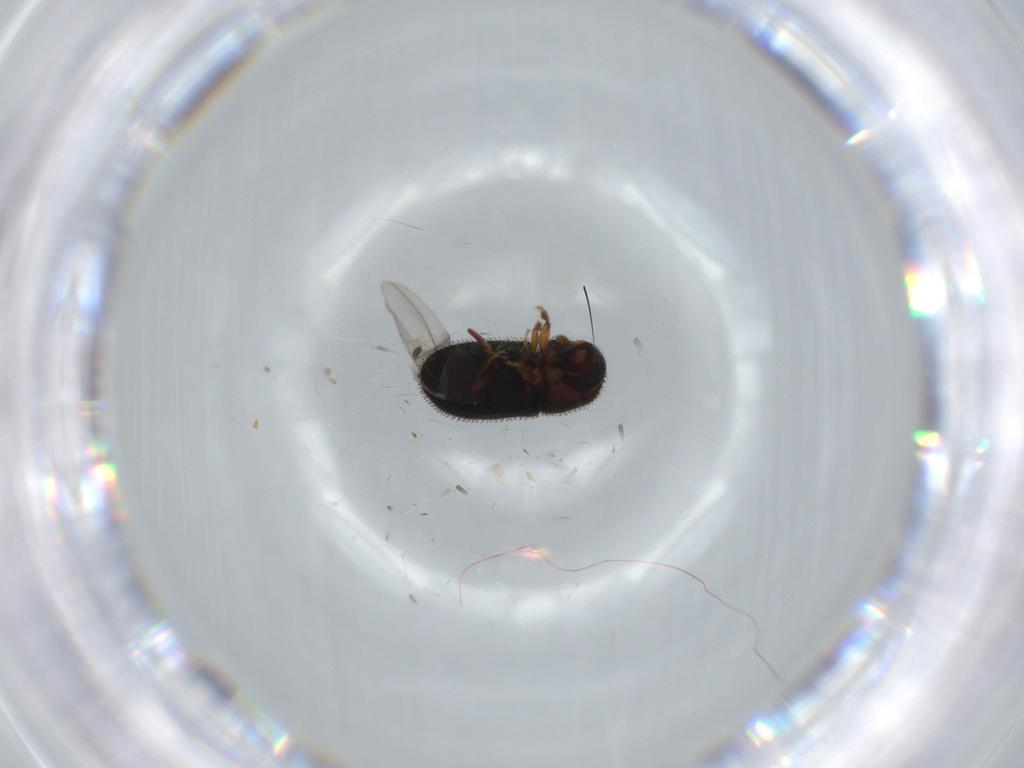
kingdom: Animalia
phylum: Arthropoda
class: Insecta
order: Coleoptera
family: Curculionidae
